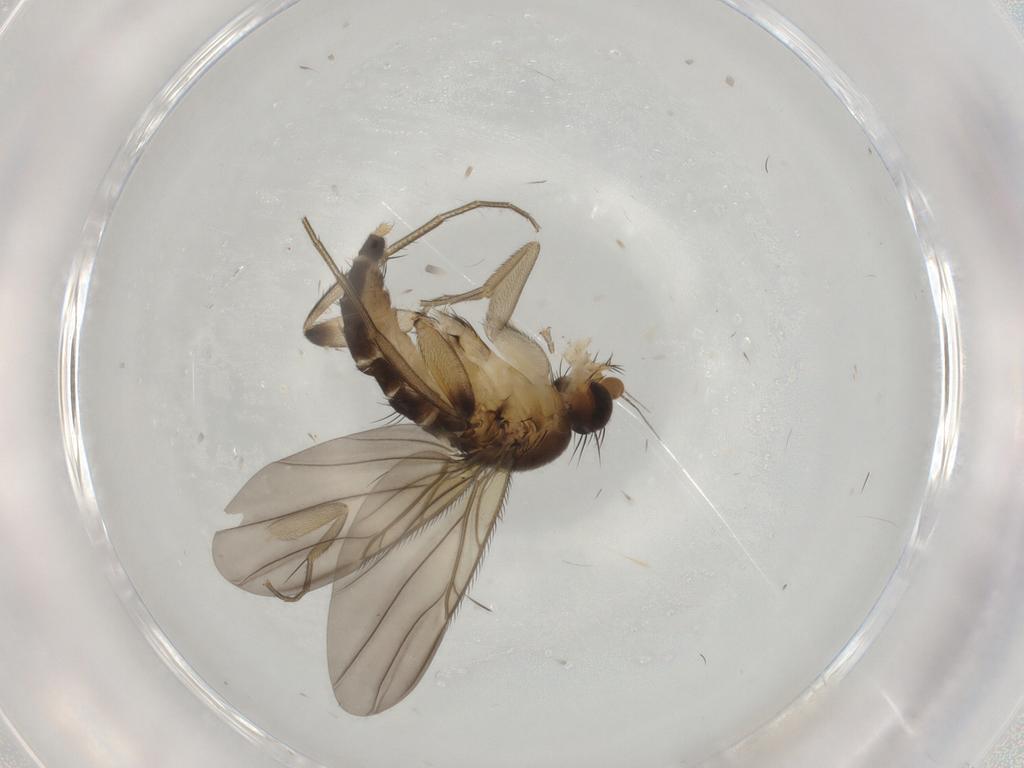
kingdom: Animalia
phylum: Arthropoda
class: Insecta
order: Diptera
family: Phoridae
